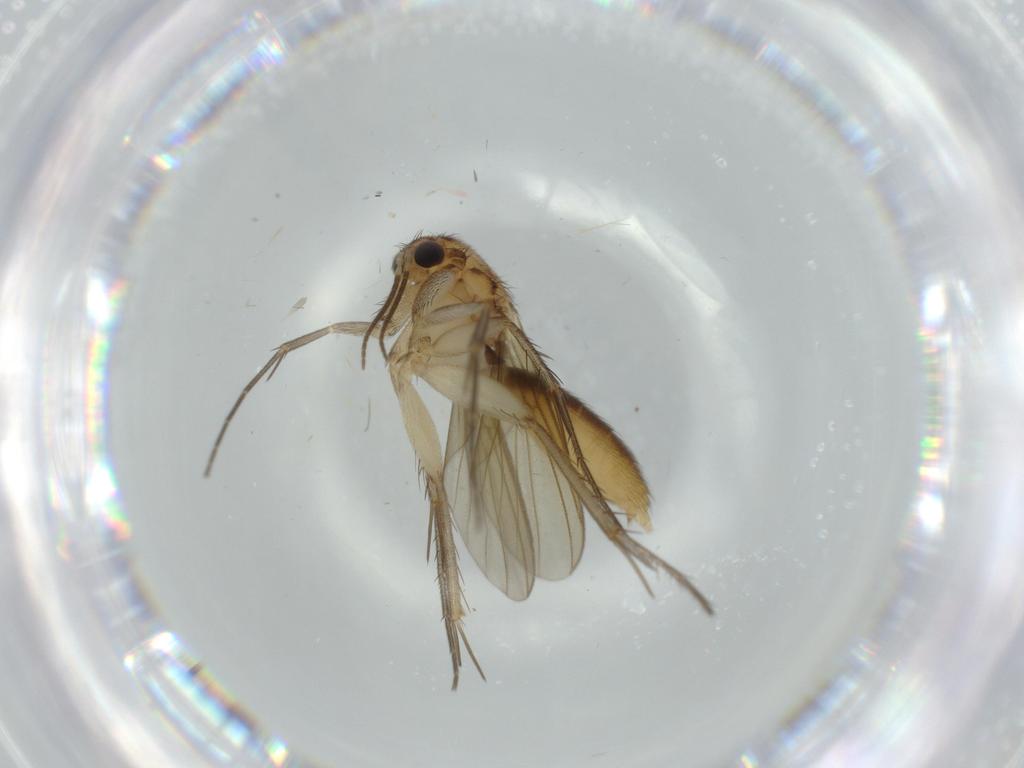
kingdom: Animalia
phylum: Arthropoda
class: Insecta
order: Diptera
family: Mycetophilidae
